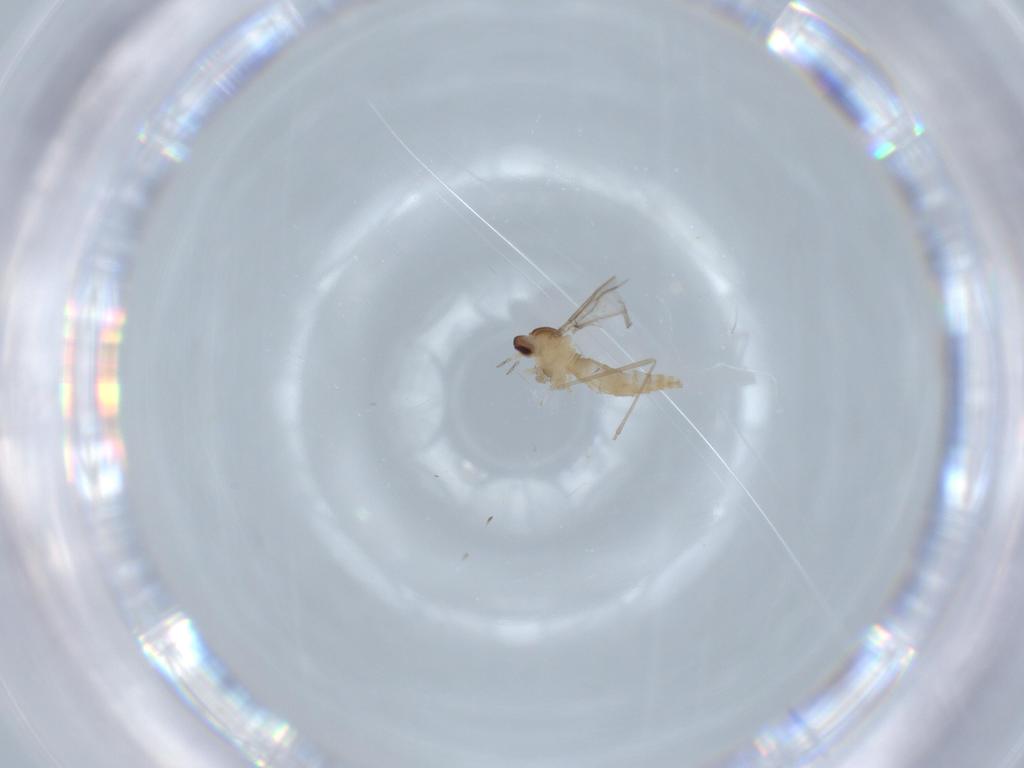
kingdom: Animalia
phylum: Arthropoda
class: Insecta
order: Diptera
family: Cecidomyiidae
